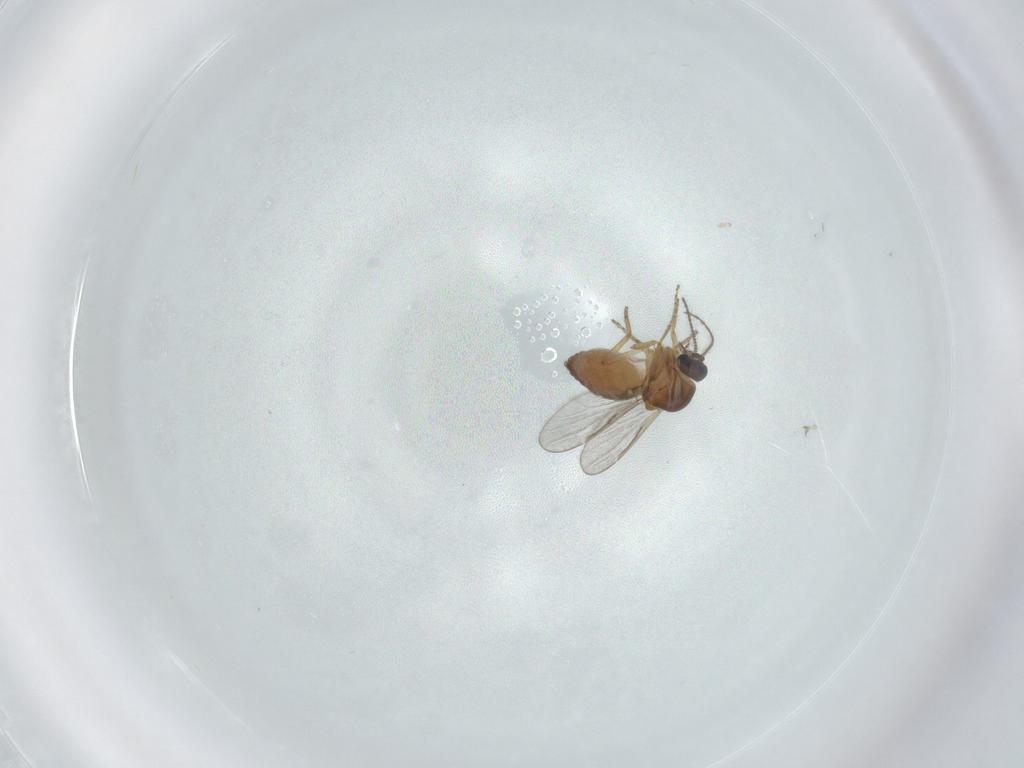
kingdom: Animalia
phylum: Arthropoda
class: Insecta
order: Diptera
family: Ceratopogonidae
